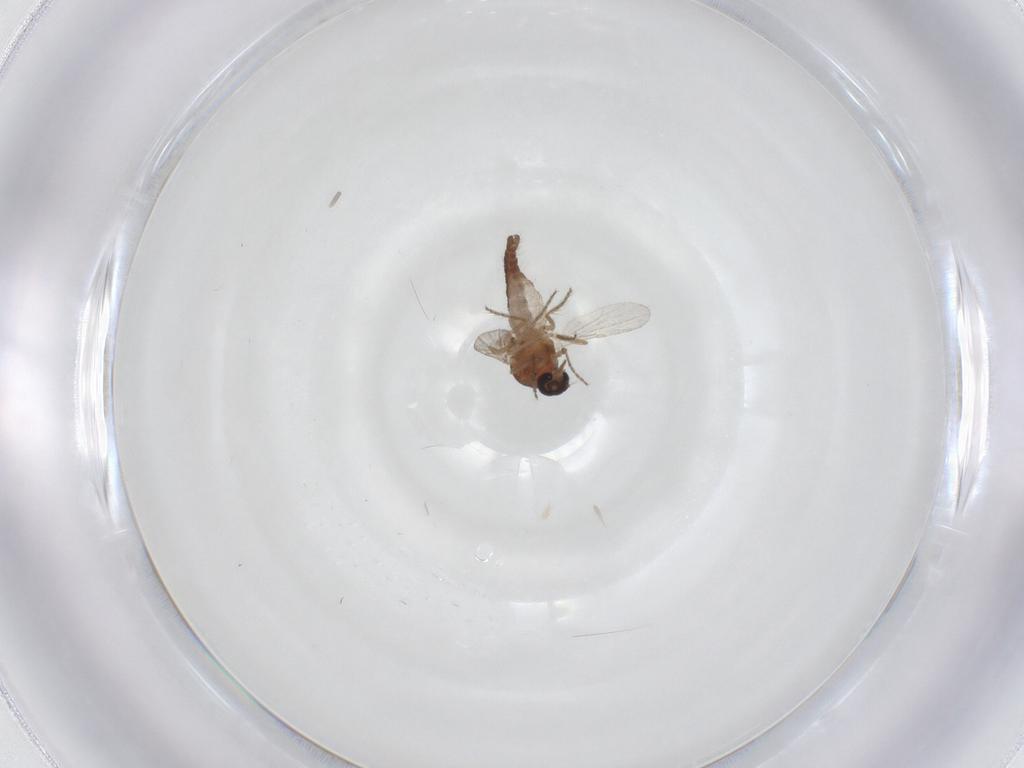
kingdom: Animalia
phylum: Arthropoda
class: Insecta
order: Diptera
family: Ceratopogonidae
